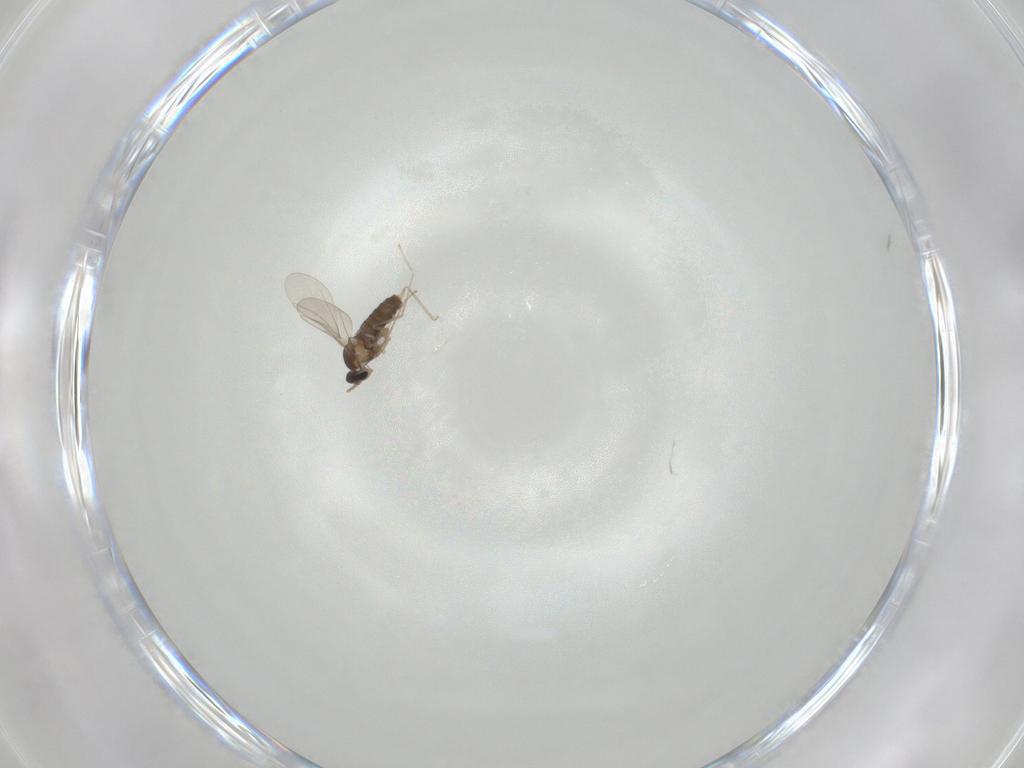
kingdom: Animalia
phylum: Arthropoda
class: Insecta
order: Diptera
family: Cecidomyiidae
